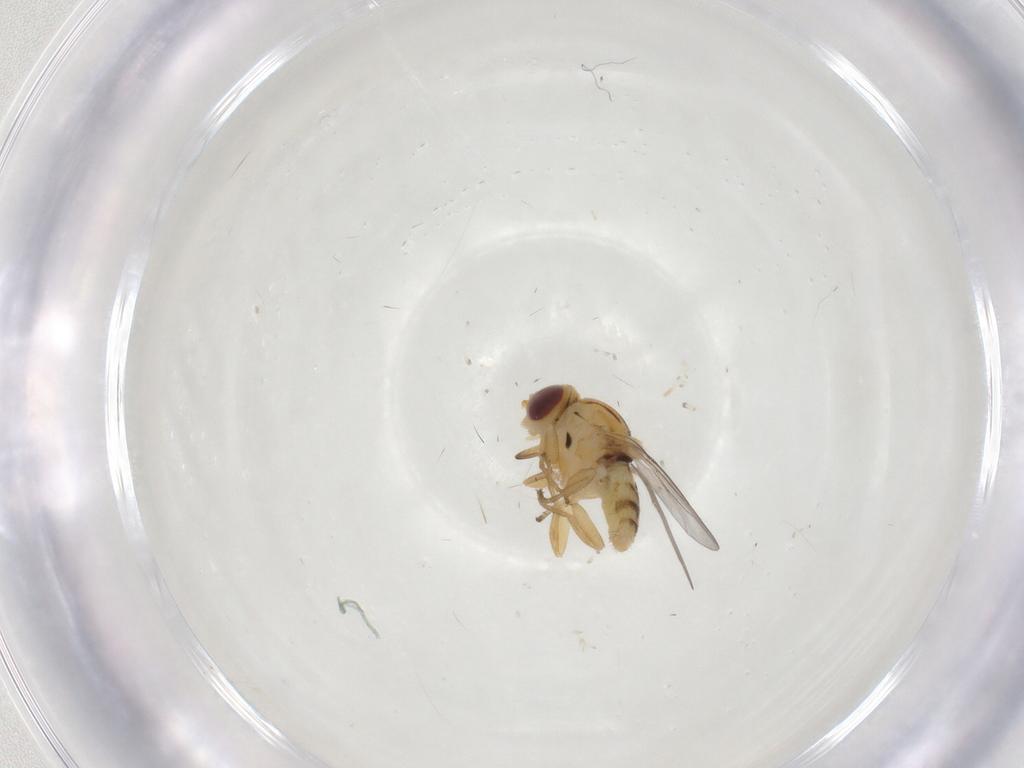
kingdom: Animalia
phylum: Arthropoda
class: Insecta
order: Diptera
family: Chloropidae
